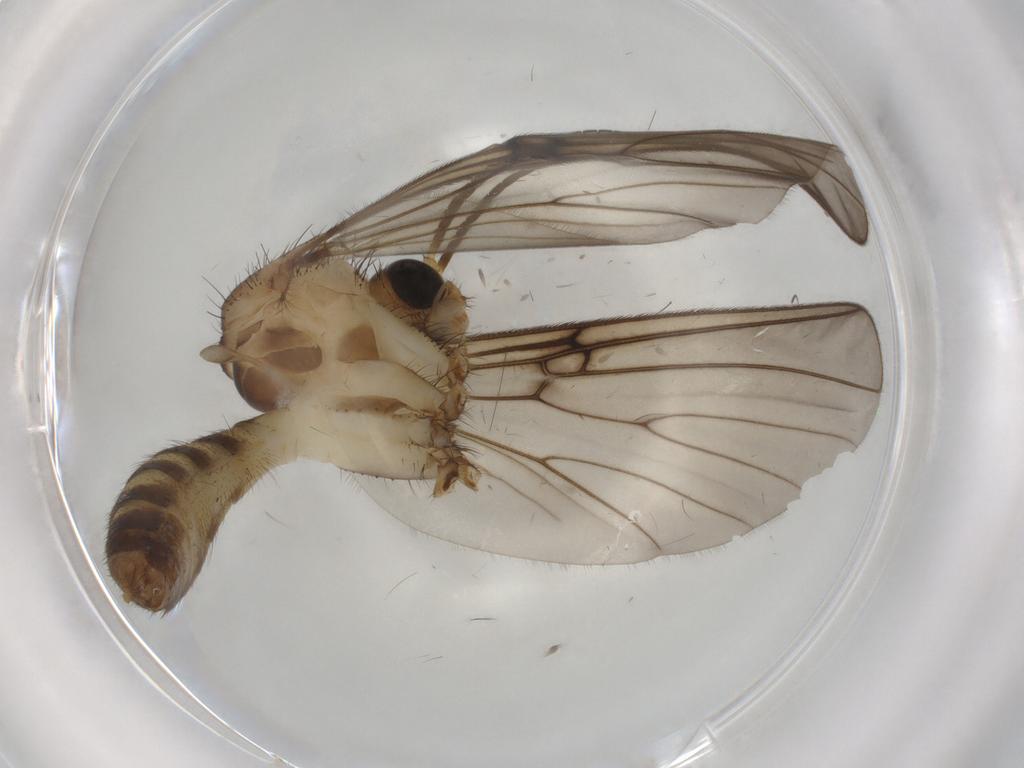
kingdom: Animalia
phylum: Arthropoda
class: Insecta
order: Diptera
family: Mycetophilidae
